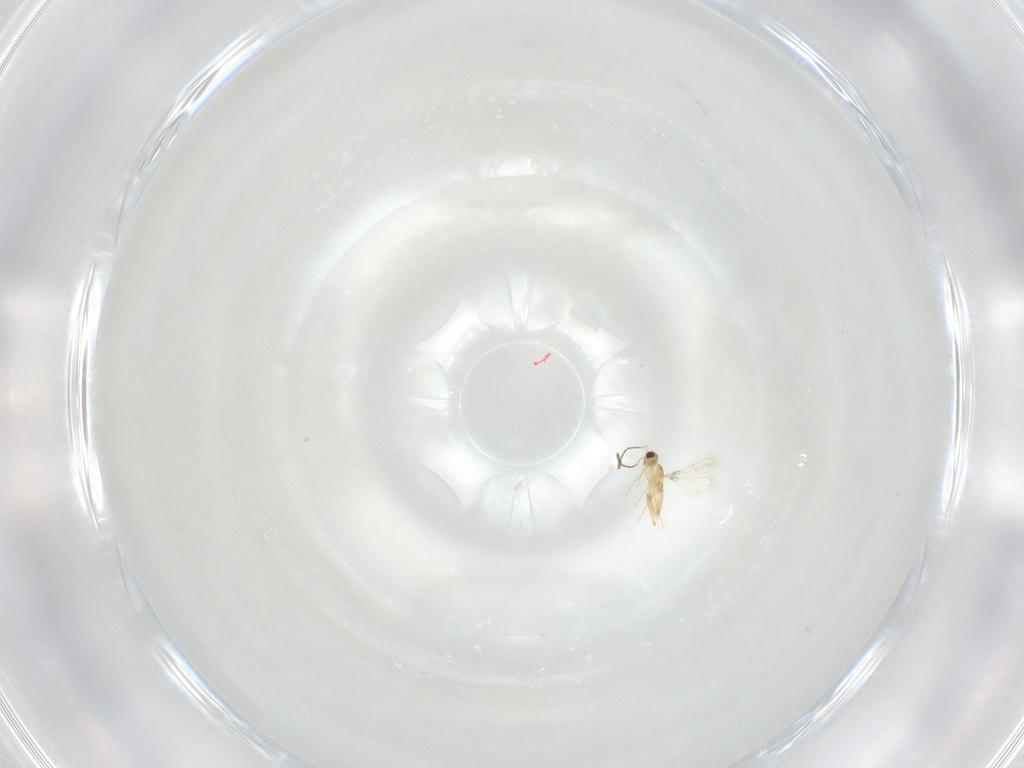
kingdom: Animalia
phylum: Arthropoda
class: Insecta
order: Hymenoptera
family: Mymaridae
